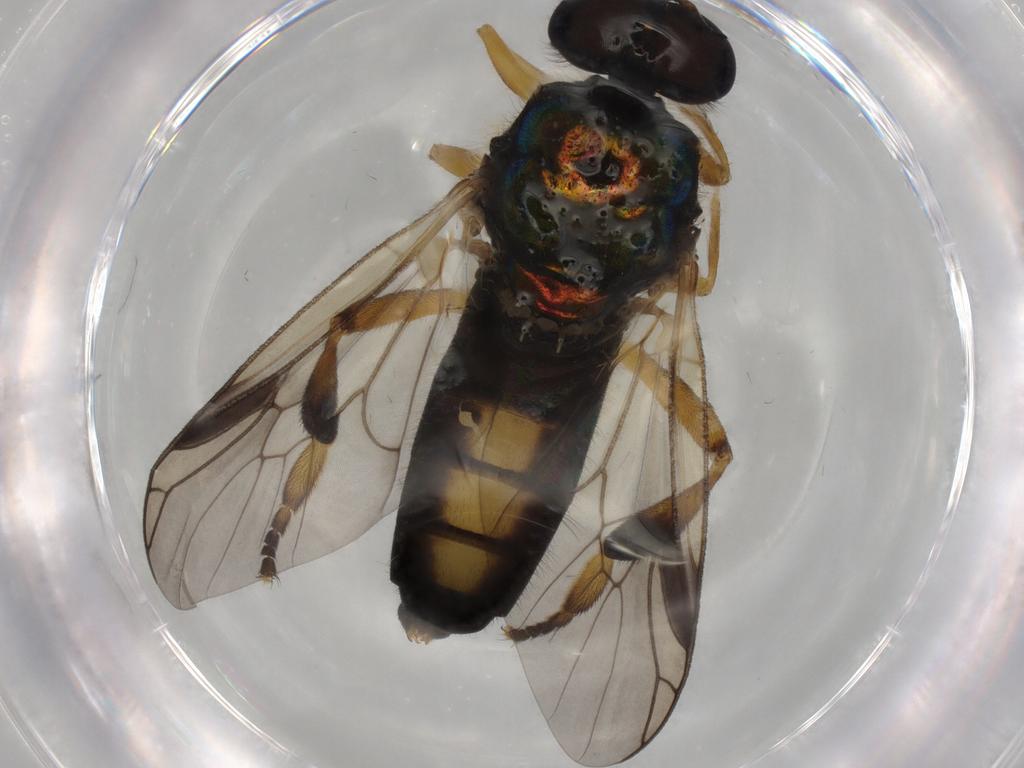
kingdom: Animalia
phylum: Arthropoda
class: Insecta
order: Diptera
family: Stratiomyidae
